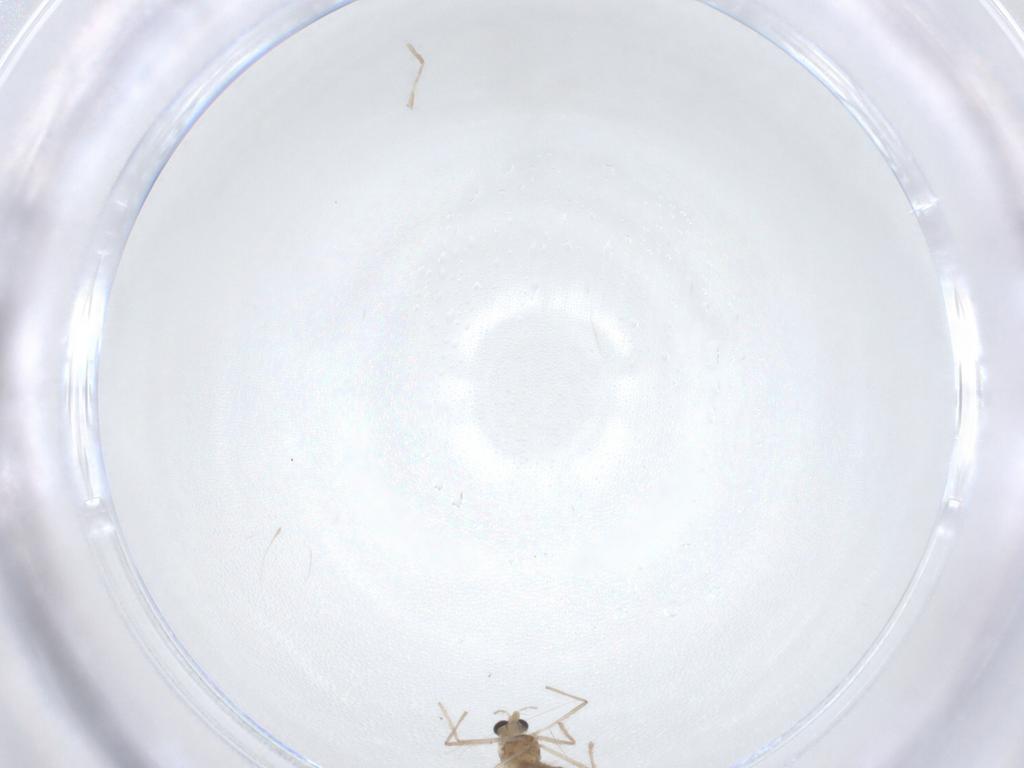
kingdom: Animalia
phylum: Arthropoda
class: Insecta
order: Diptera
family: Chironomidae
